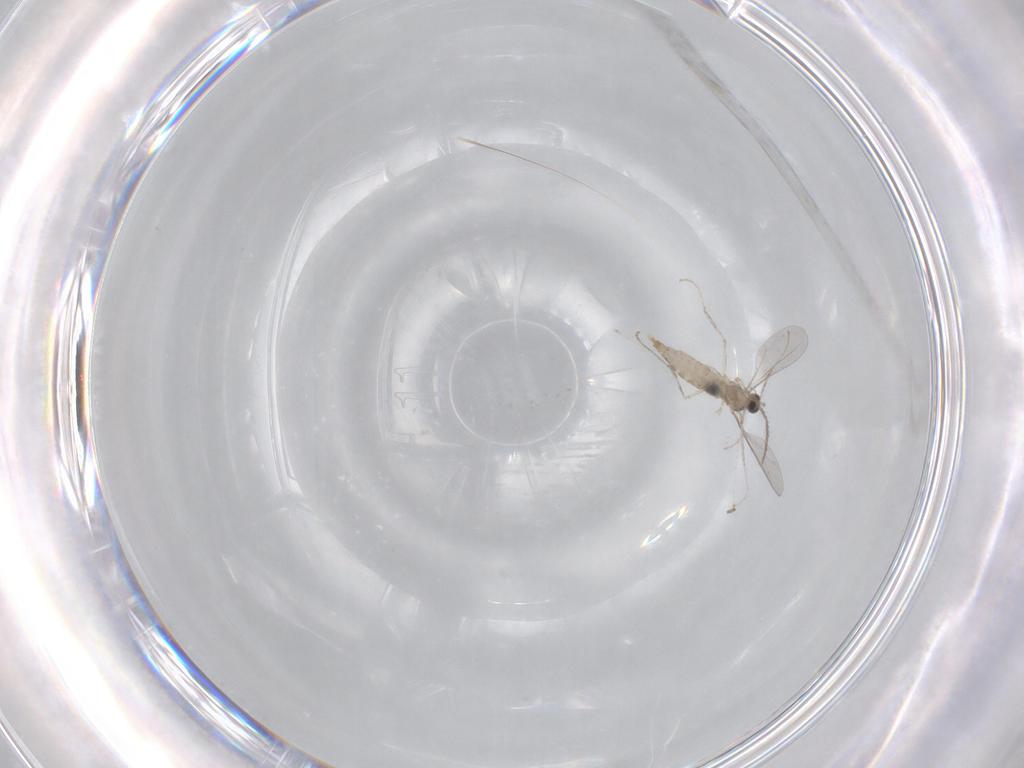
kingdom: Animalia
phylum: Arthropoda
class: Insecta
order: Diptera
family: Cecidomyiidae
